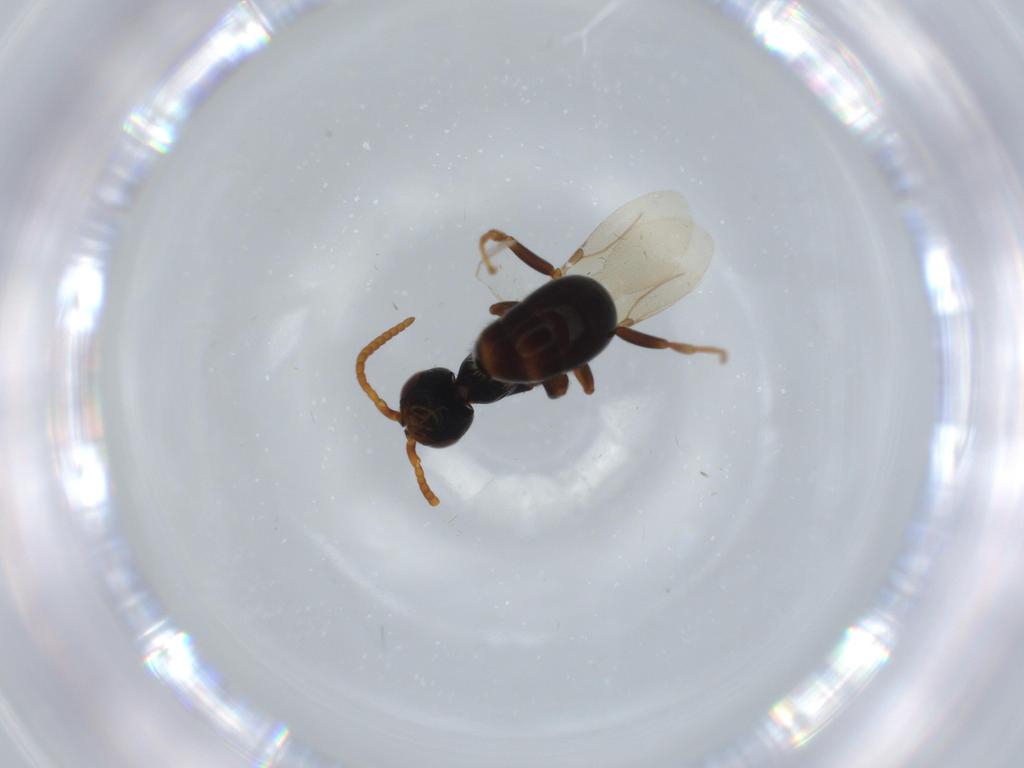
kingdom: Animalia
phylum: Arthropoda
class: Insecta
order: Hymenoptera
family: Bethylidae
